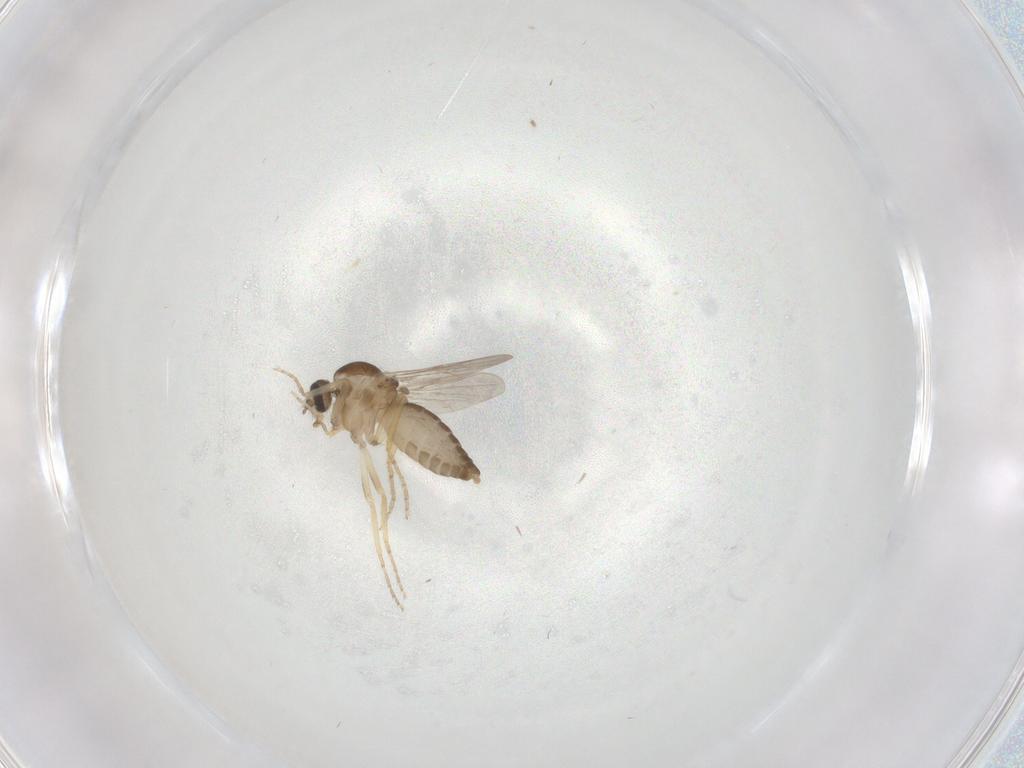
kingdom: Animalia
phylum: Arthropoda
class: Insecta
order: Diptera
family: Ceratopogonidae
